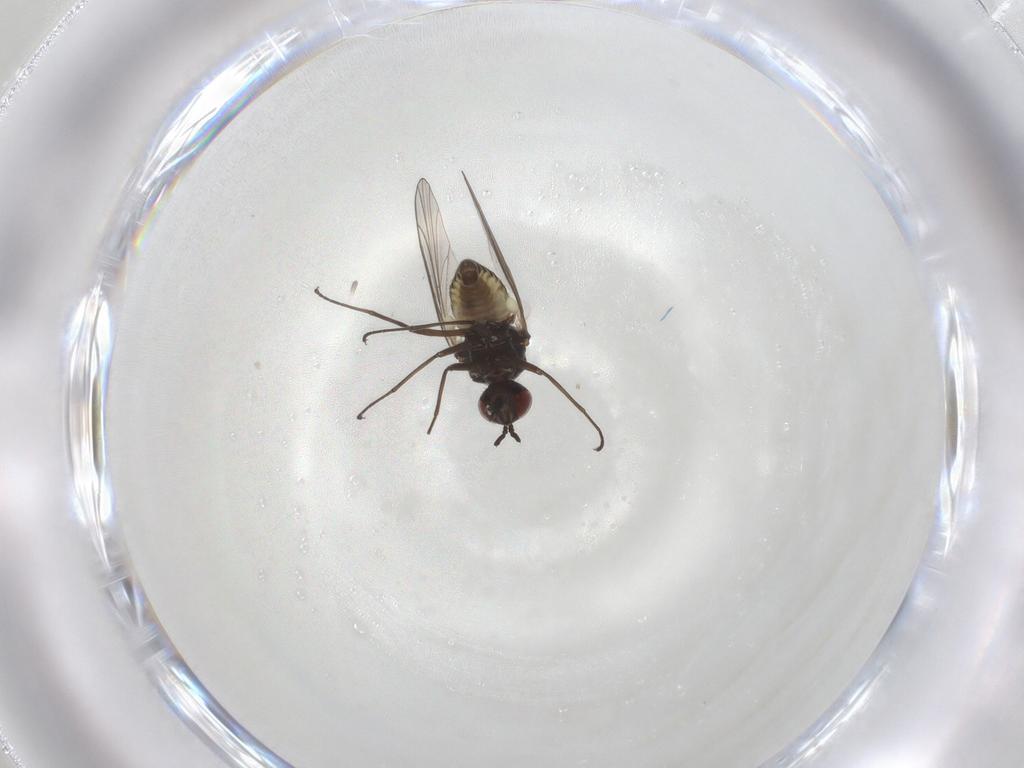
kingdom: Animalia
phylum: Arthropoda
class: Insecta
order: Diptera
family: Bombyliidae
